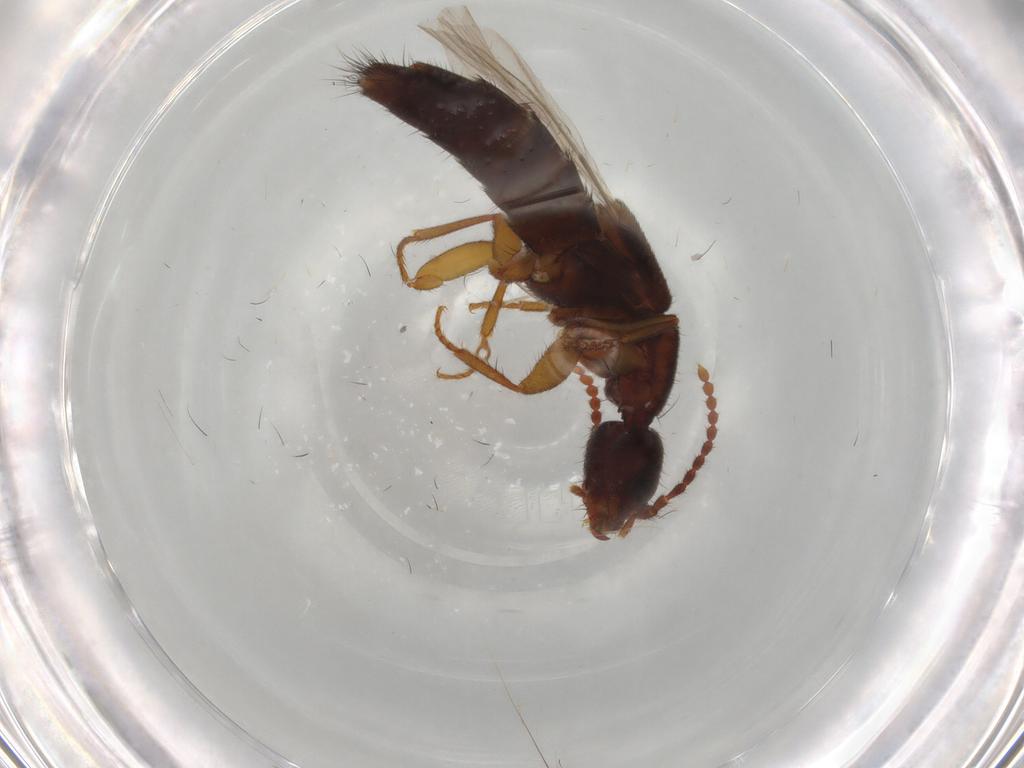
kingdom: Animalia
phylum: Arthropoda
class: Insecta
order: Coleoptera
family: Staphylinidae
